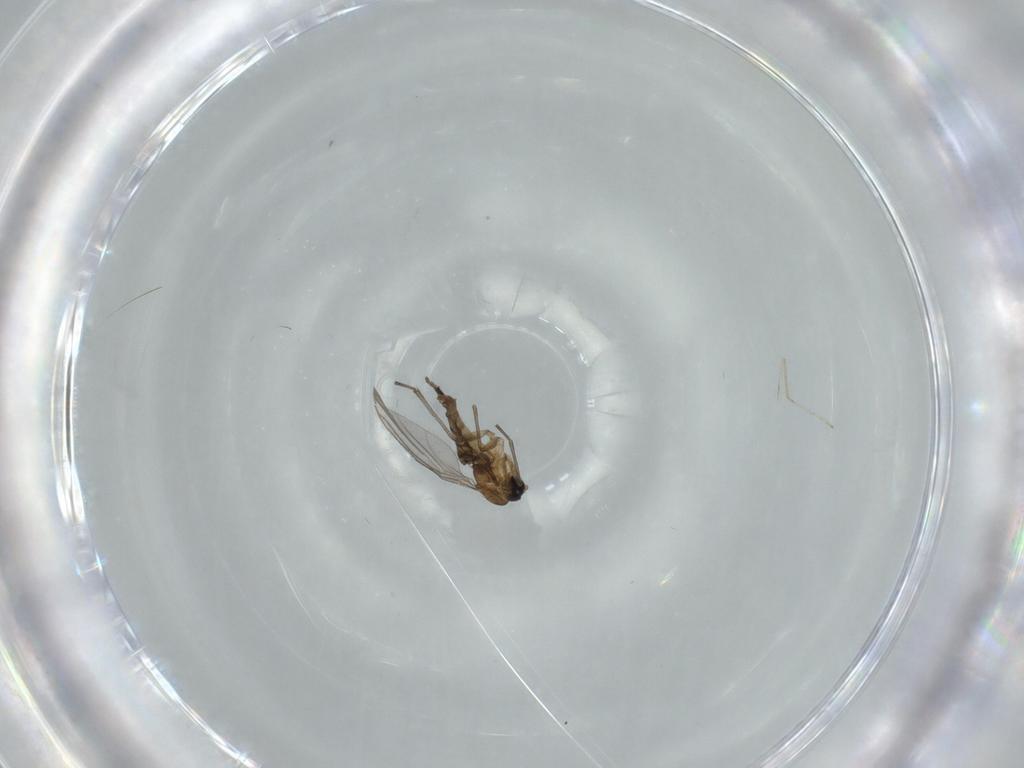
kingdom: Animalia
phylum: Arthropoda
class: Insecta
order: Diptera
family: Sciaridae
